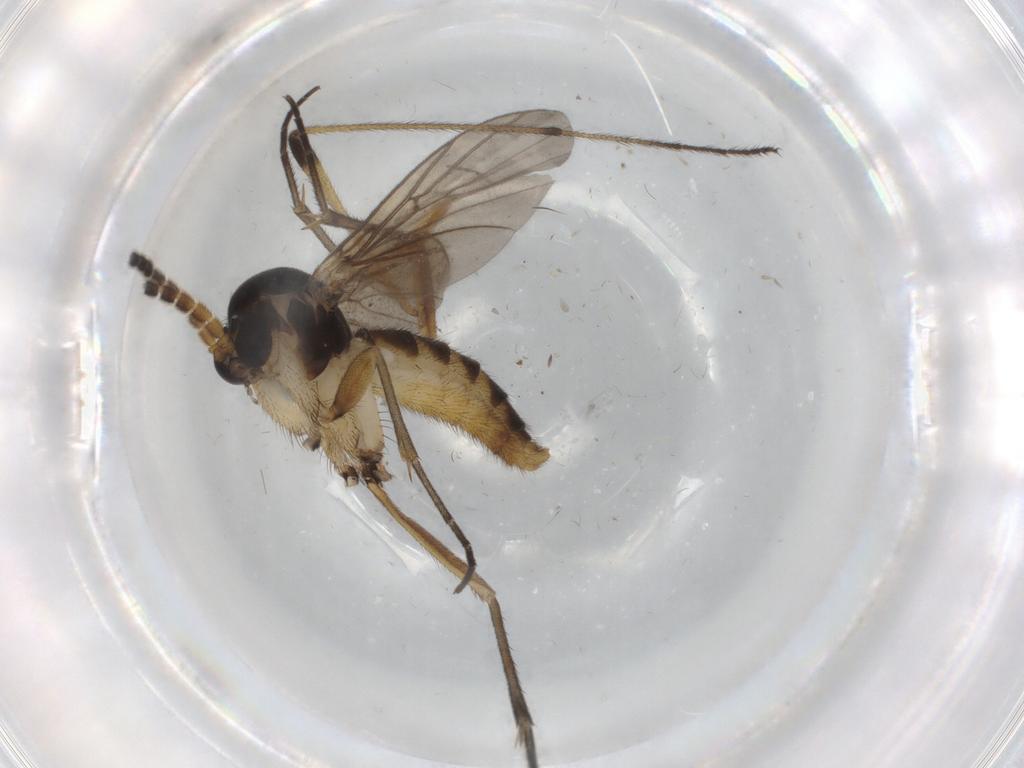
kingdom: Animalia
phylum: Arthropoda
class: Insecta
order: Diptera
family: Chironomidae
